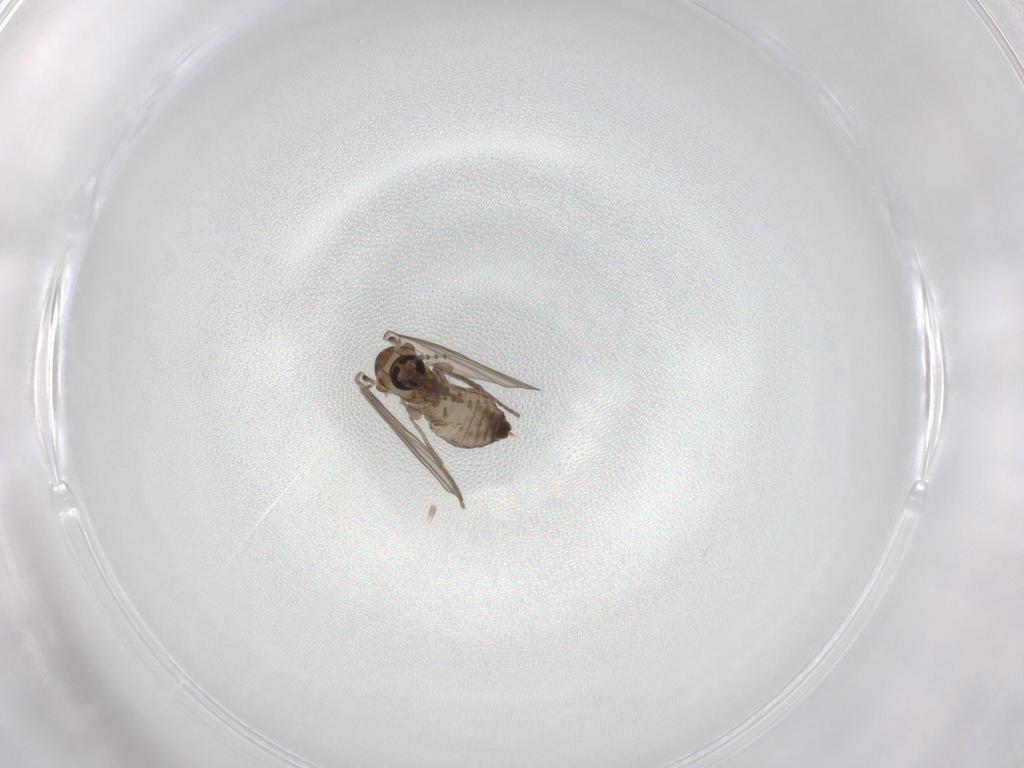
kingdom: Animalia
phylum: Arthropoda
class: Insecta
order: Diptera
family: Psychodidae
